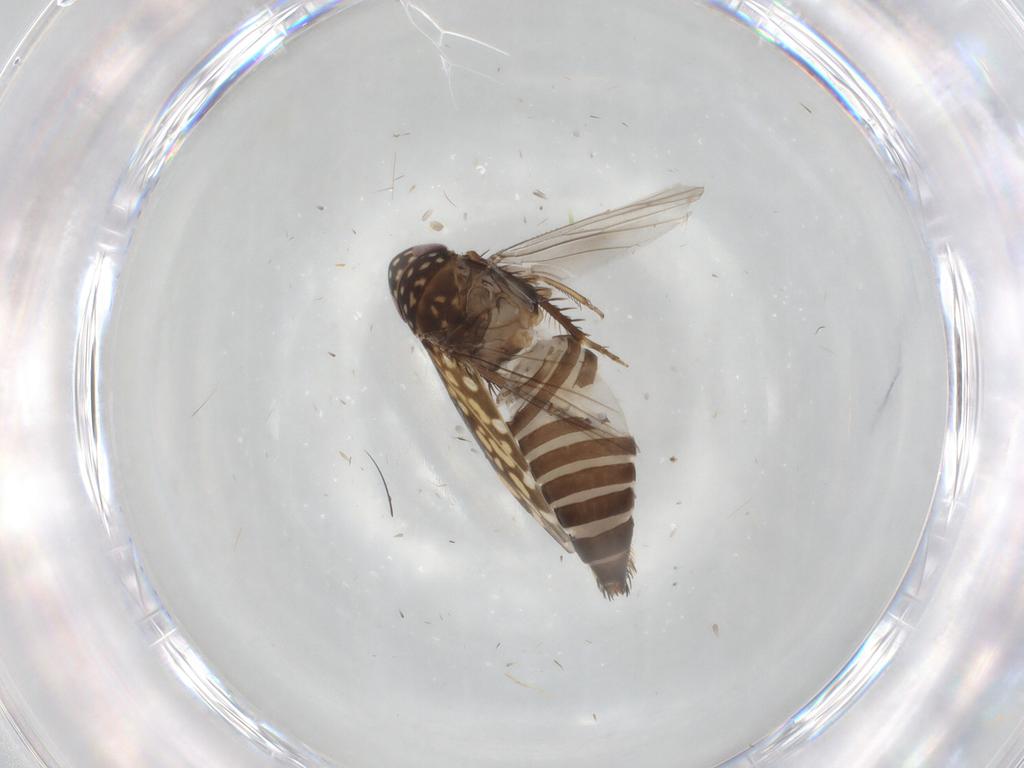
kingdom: Animalia
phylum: Arthropoda
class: Insecta
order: Hemiptera
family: Cicadellidae
